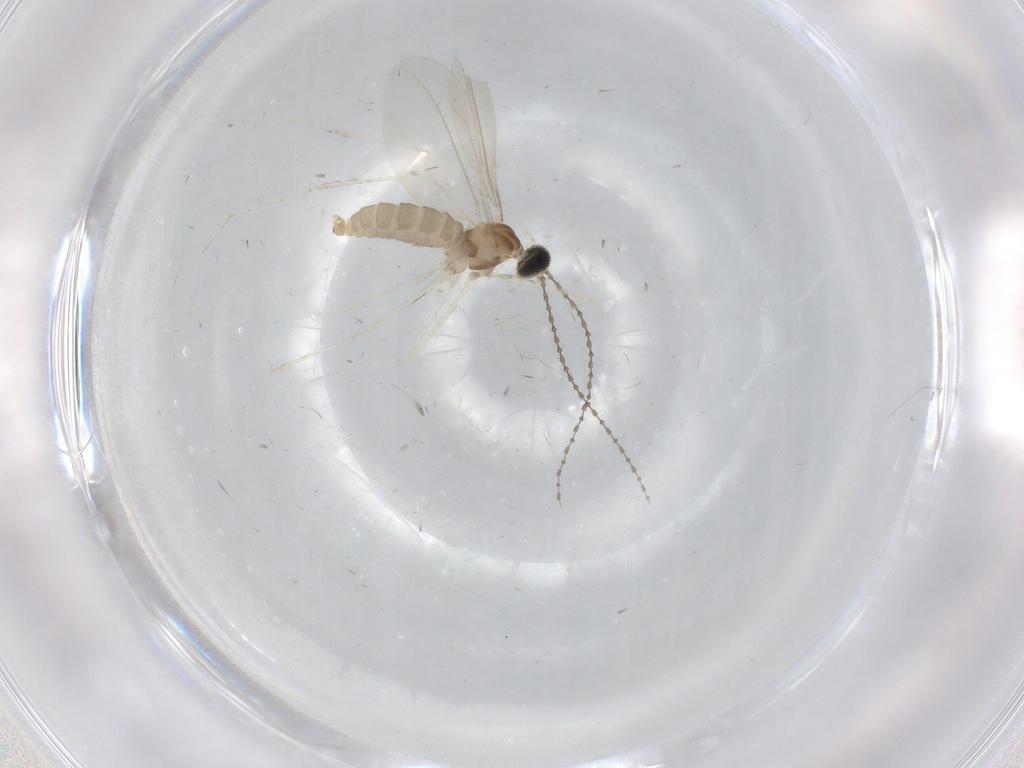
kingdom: Animalia
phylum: Arthropoda
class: Insecta
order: Diptera
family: Cecidomyiidae
